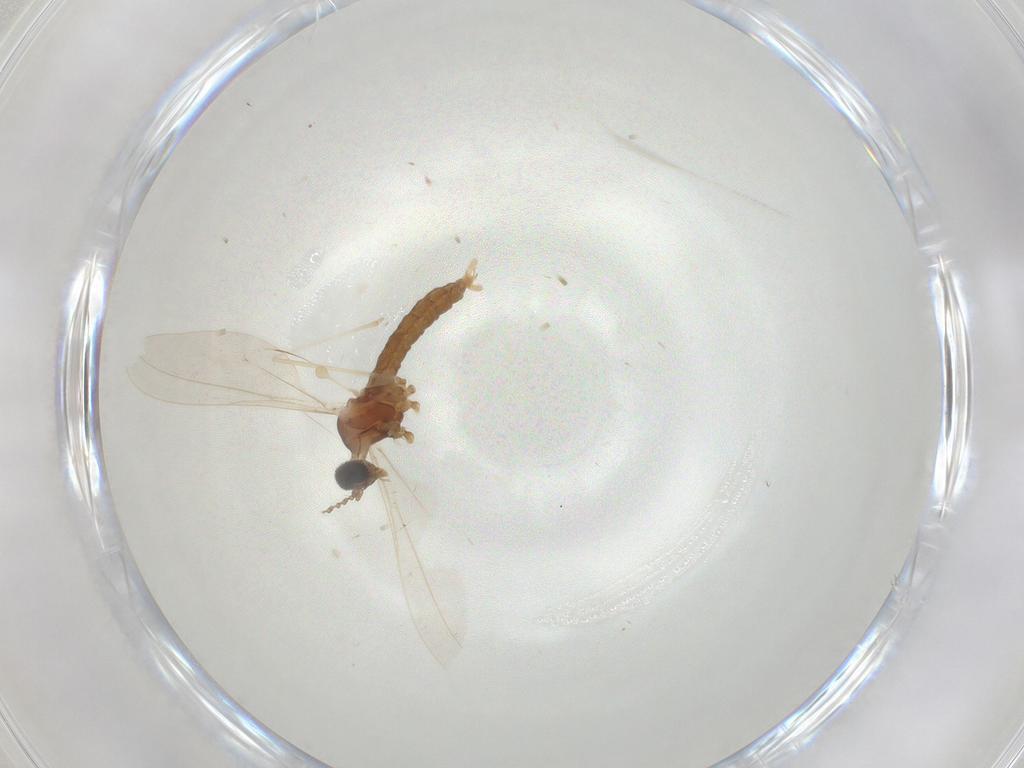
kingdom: Animalia
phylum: Arthropoda
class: Insecta
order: Diptera
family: Cecidomyiidae
